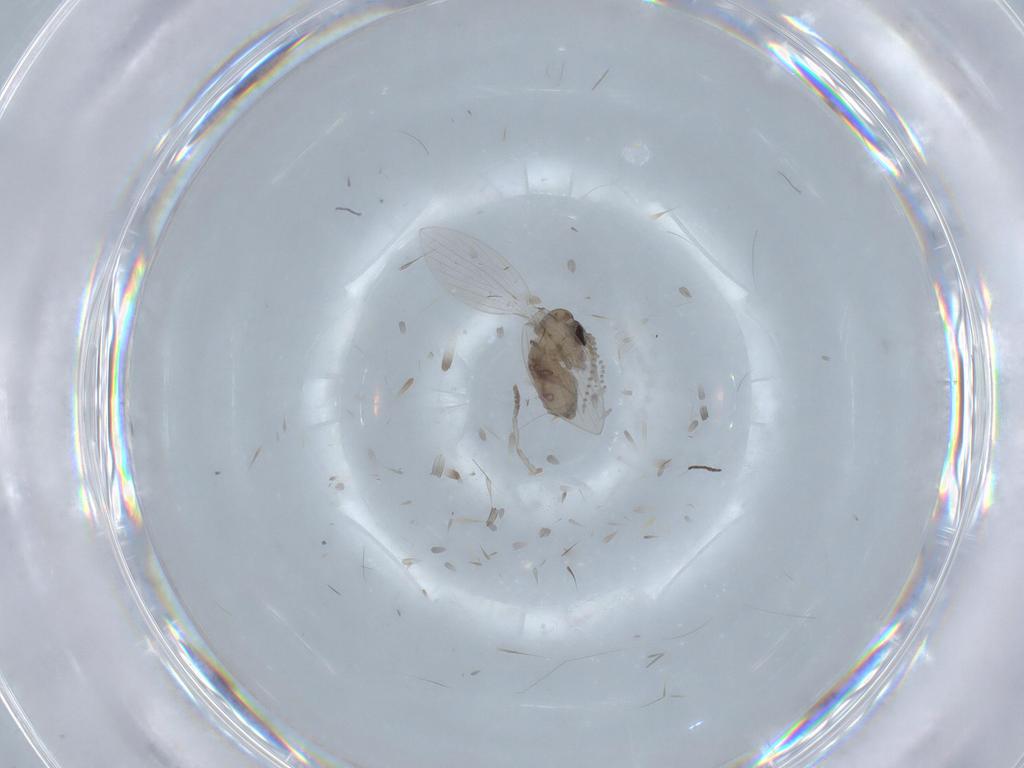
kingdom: Animalia
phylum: Arthropoda
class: Insecta
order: Diptera
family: Psychodidae
